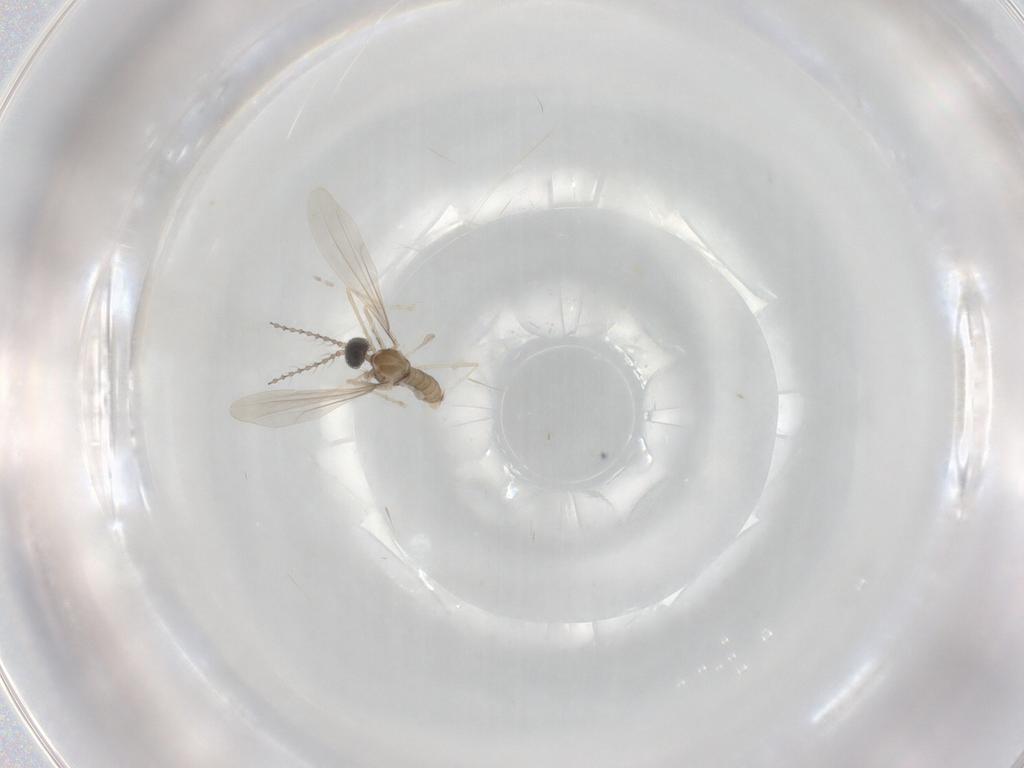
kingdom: Animalia
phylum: Arthropoda
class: Insecta
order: Diptera
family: Cecidomyiidae
